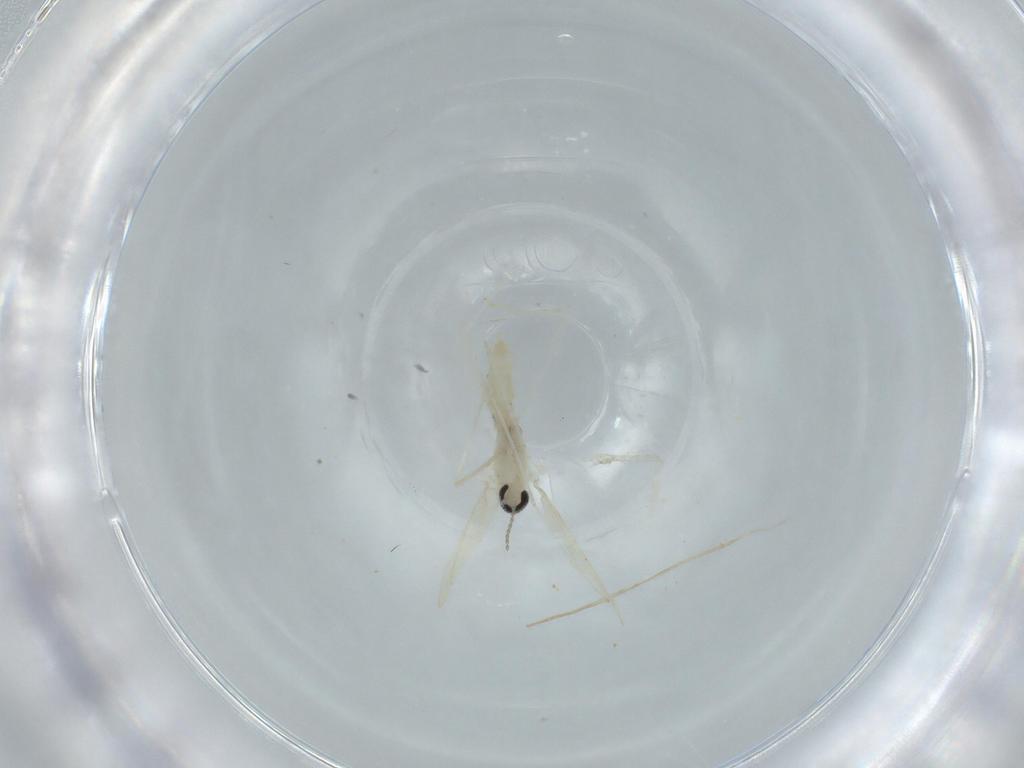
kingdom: Animalia
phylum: Arthropoda
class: Insecta
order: Diptera
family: Cecidomyiidae
